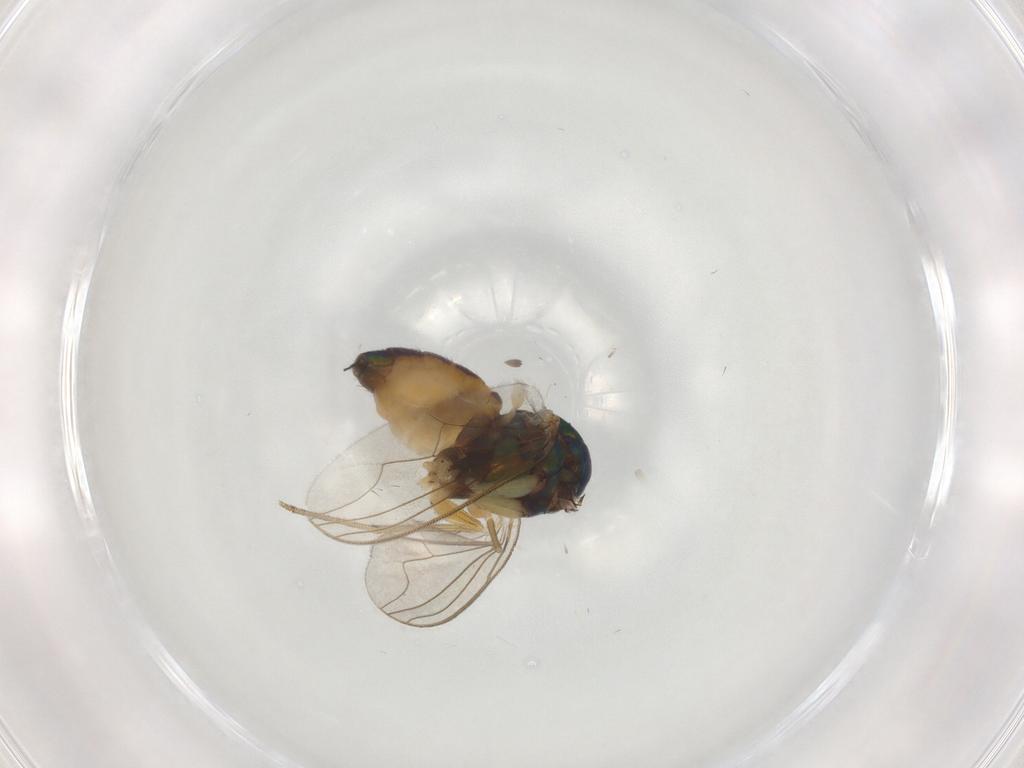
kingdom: Animalia
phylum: Arthropoda
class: Insecta
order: Diptera
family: Dolichopodidae
